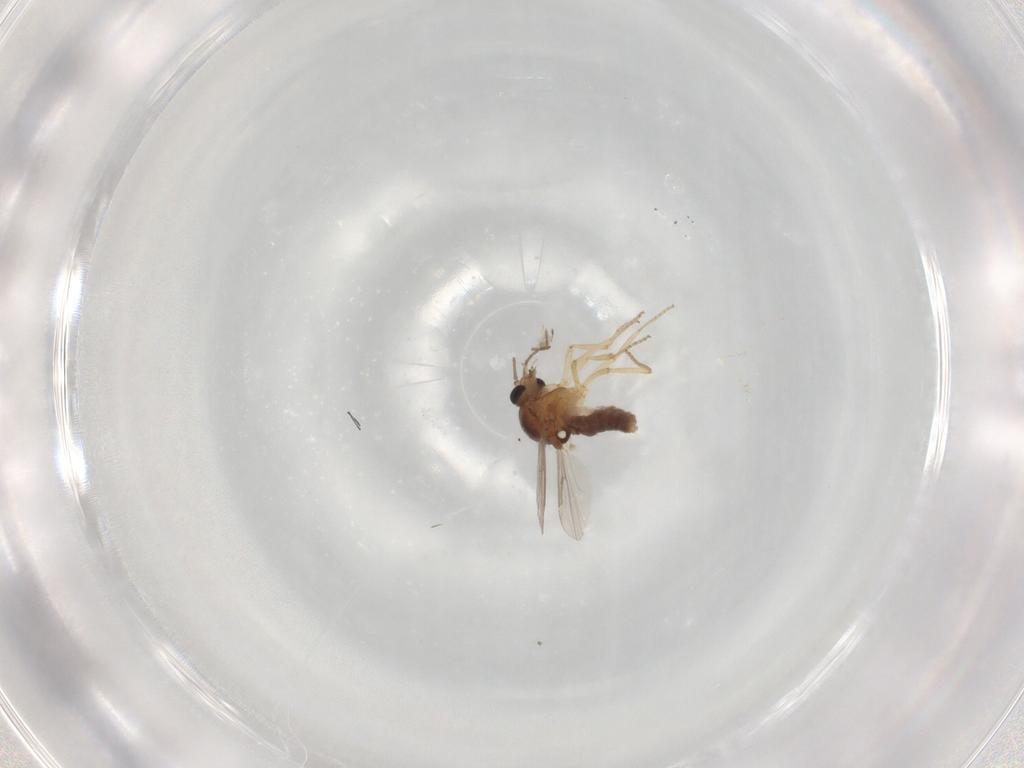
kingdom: Animalia
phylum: Arthropoda
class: Insecta
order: Diptera
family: Ceratopogonidae
